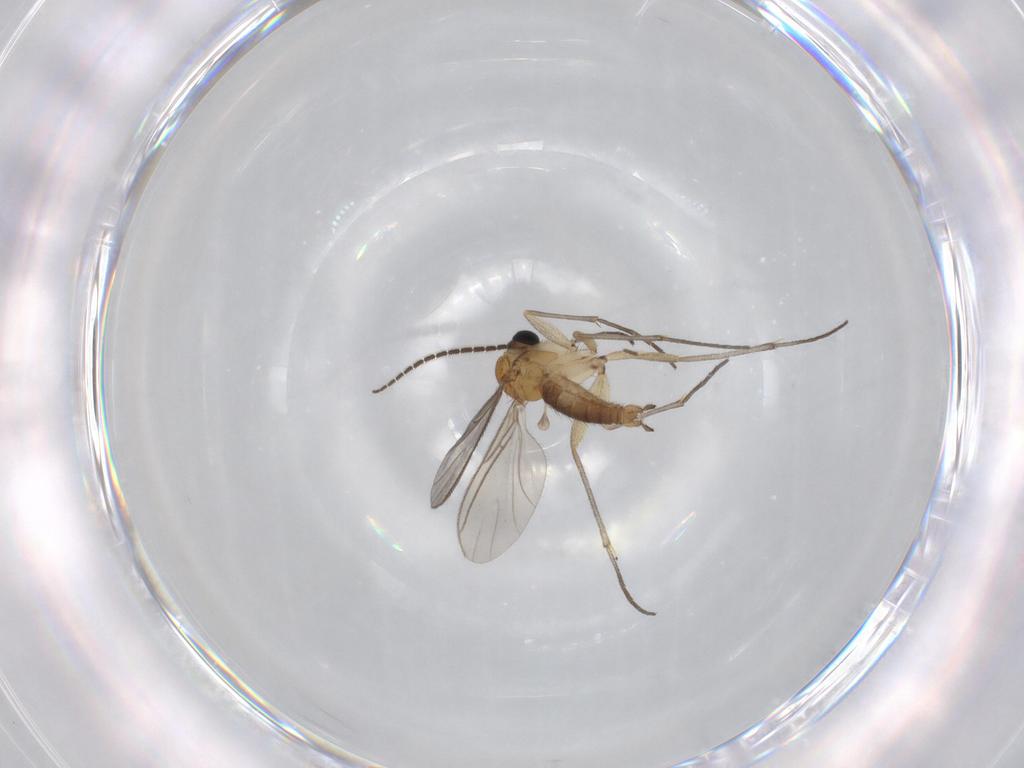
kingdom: Animalia
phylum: Arthropoda
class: Insecta
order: Diptera
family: Sciaridae
